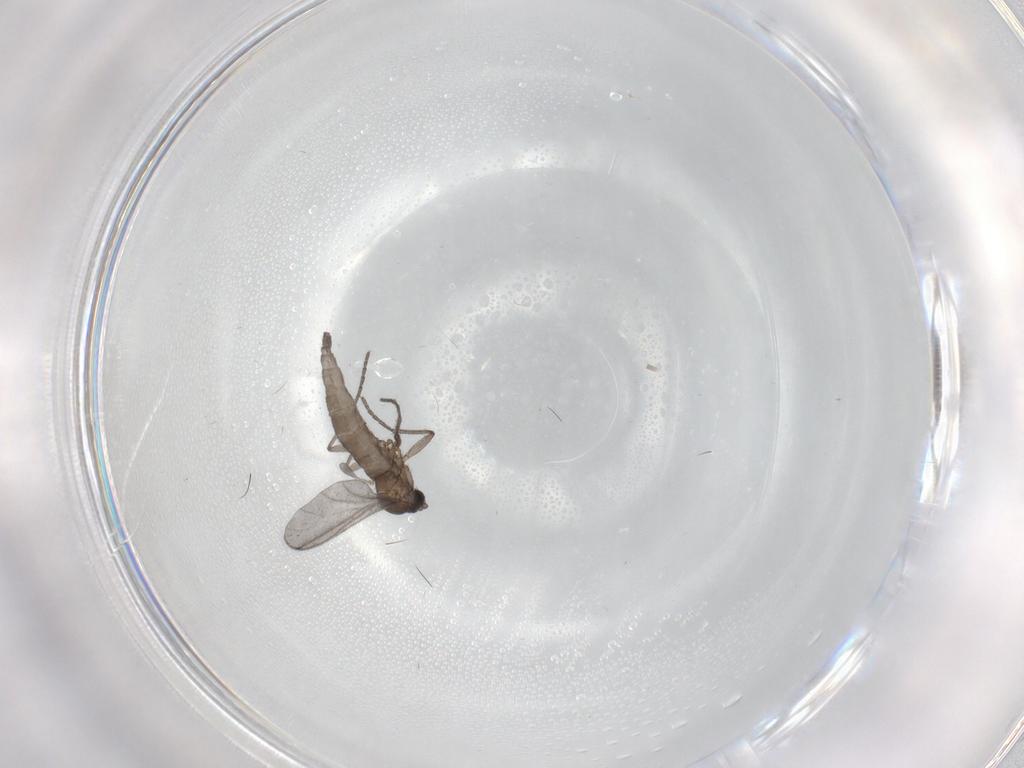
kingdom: Animalia
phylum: Arthropoda
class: Insecta
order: Diptera
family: Sciaridae
